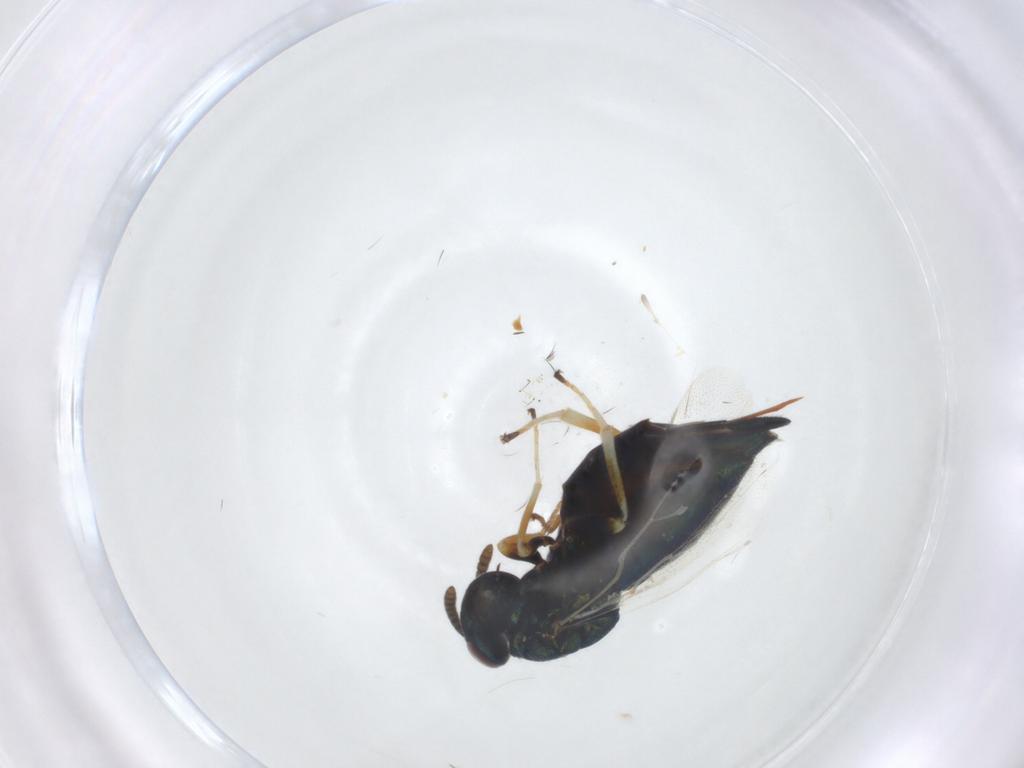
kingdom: Animalia
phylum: Arthropoda
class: Insecta
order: Hymenoptera
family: Pteromalidae
